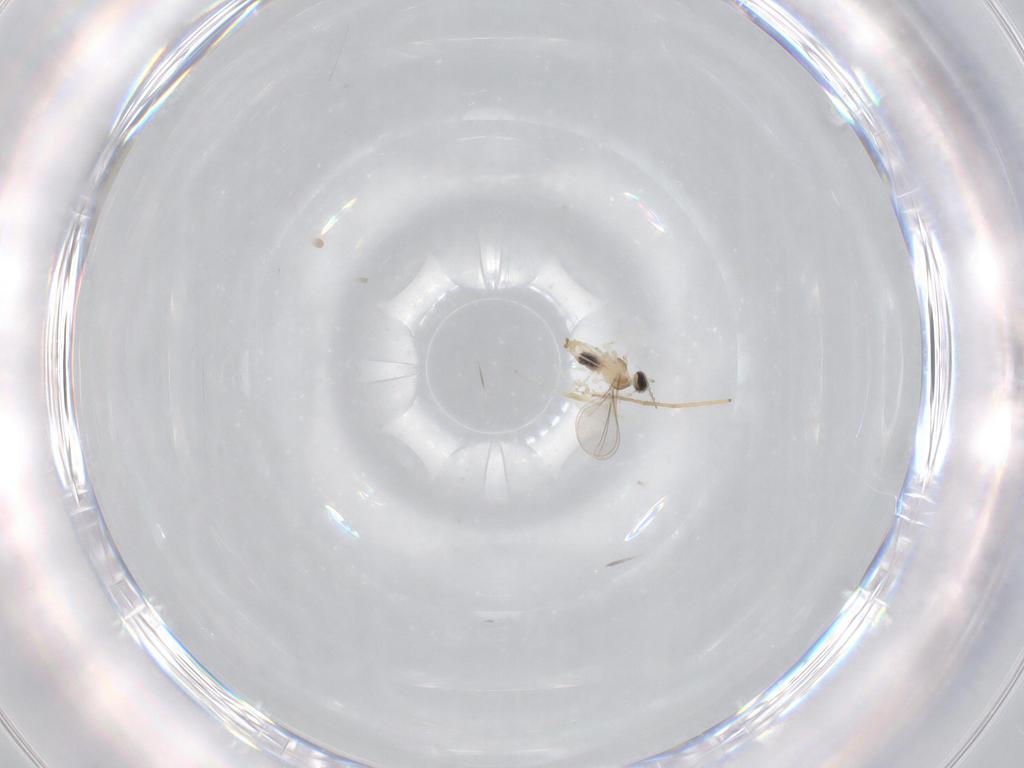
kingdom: Animalia
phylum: Arthropoda
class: Insecta
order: Diptera
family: Cecidomyiidae
